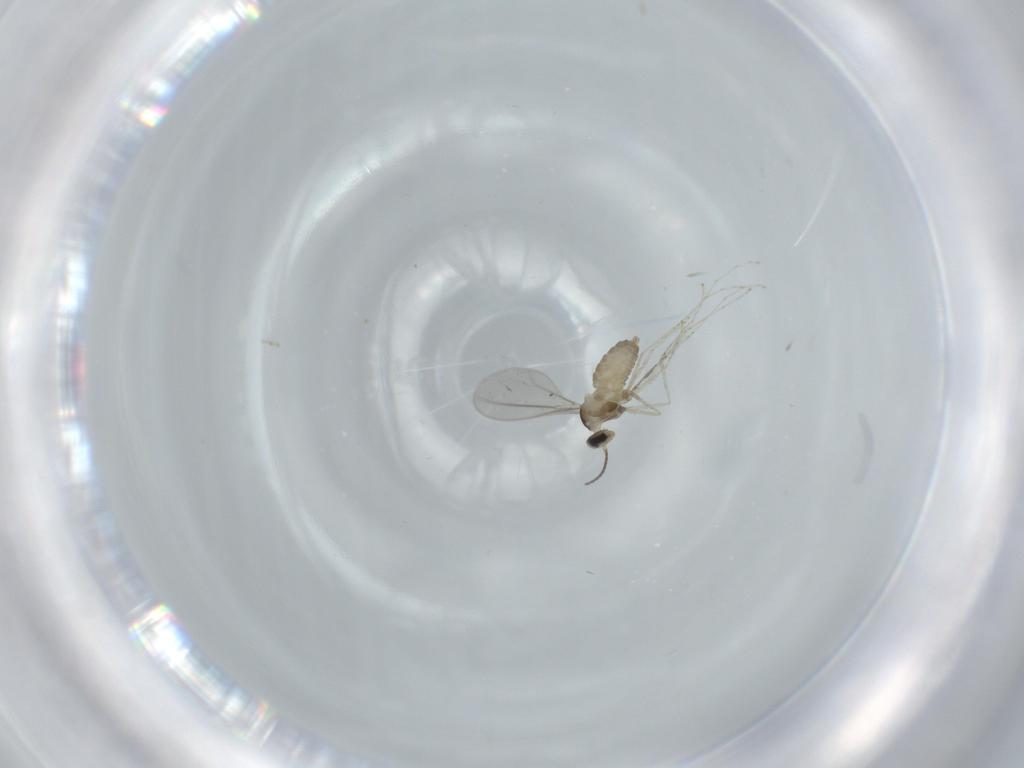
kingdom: Animalia
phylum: Arthropoda
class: Insecta
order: Diptera
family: Cecidomyiidae
